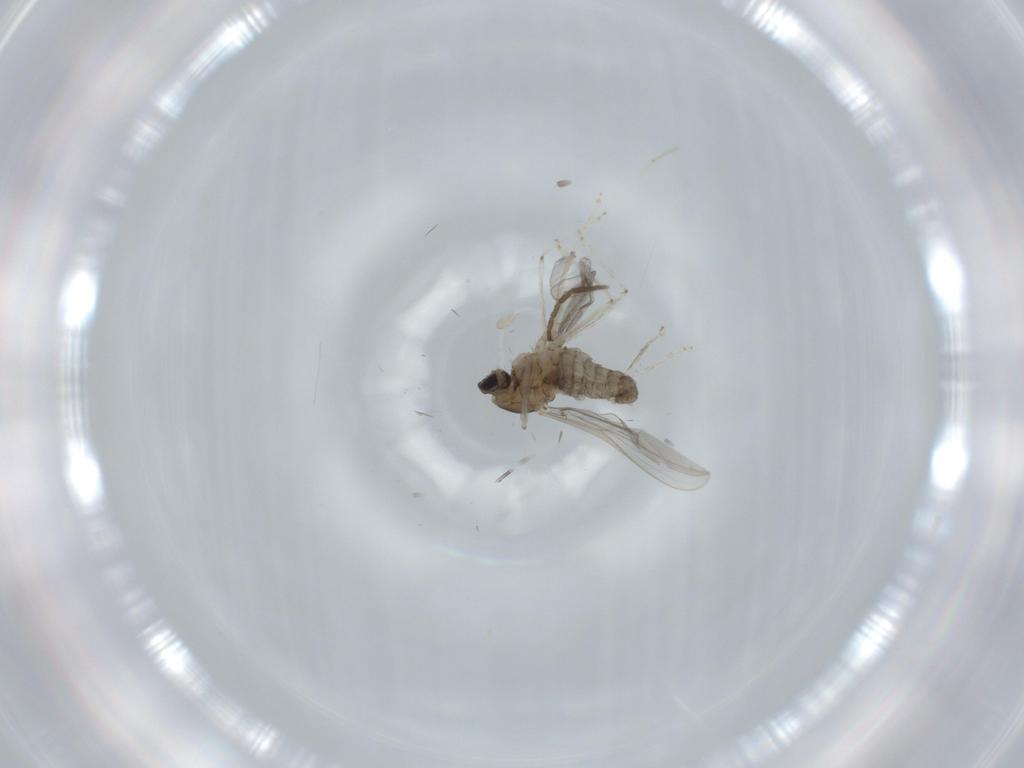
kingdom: Animalia
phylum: Arthropoda
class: Insecta
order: Diptera
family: Cecidomyiidae
